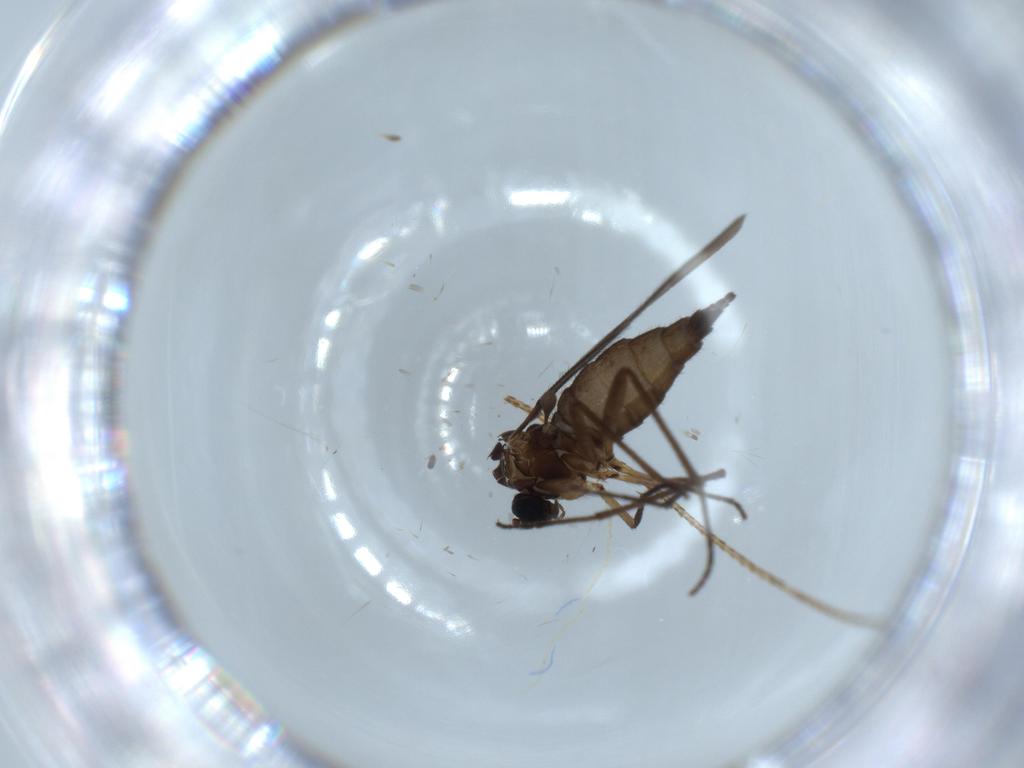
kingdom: Animalia
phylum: Arthropoda
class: Insecta
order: Diptera
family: Sciaridae
